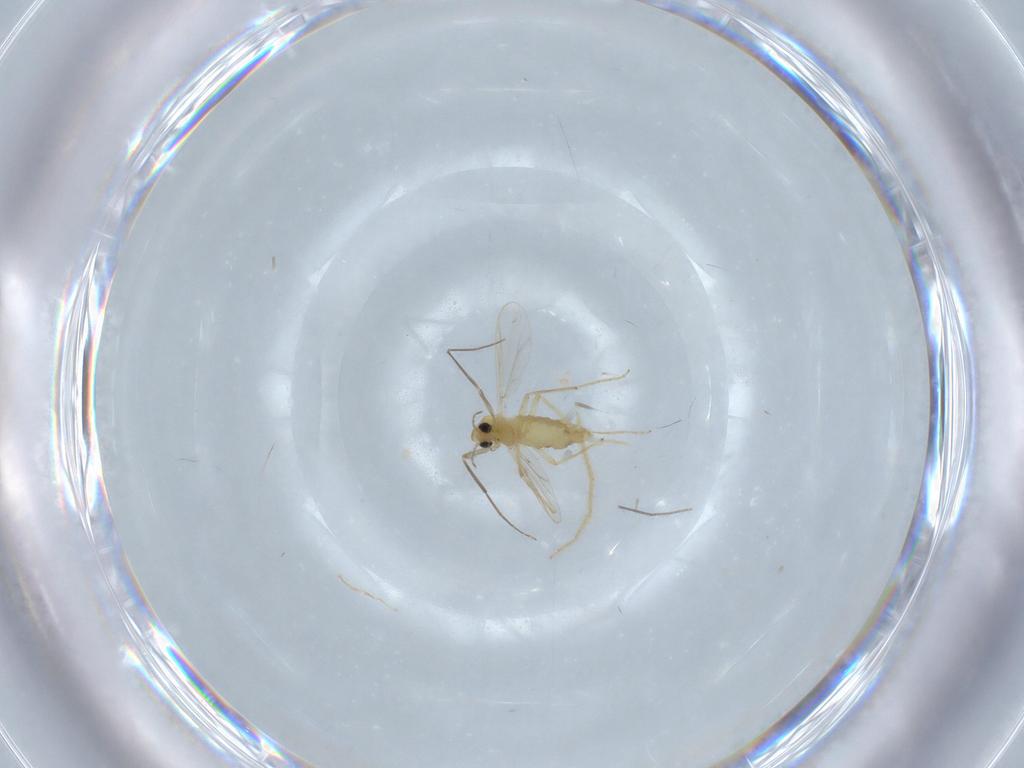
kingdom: Animalia
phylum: Arthropoda
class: Insecta
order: Diptera
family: Chironomidae
